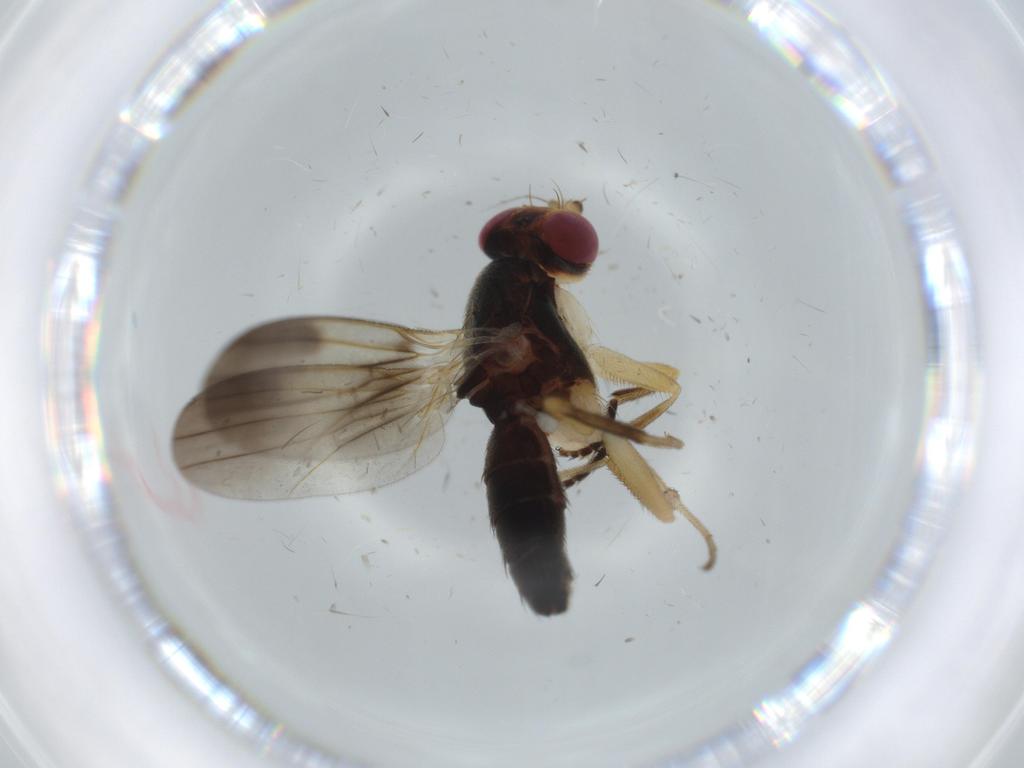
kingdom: Animalia
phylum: Arthropoda
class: Insecta
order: Diptera
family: Clusiidae
